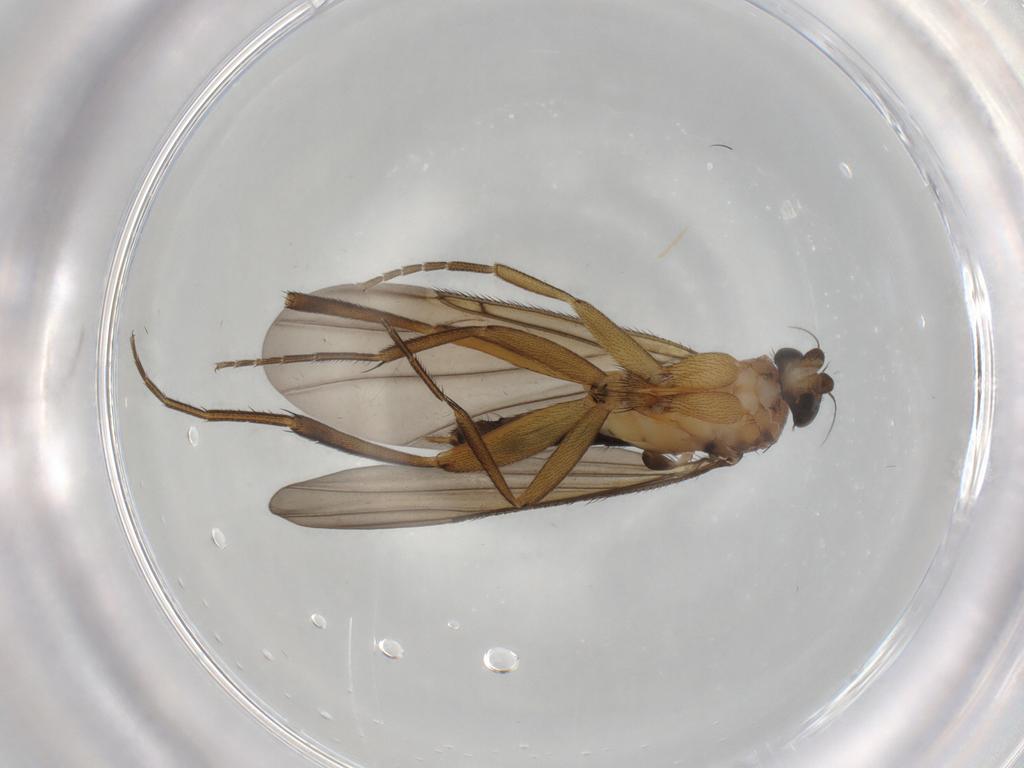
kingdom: Animalia
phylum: Arthropoda
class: Insecta
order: Diptera
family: Phoridae
